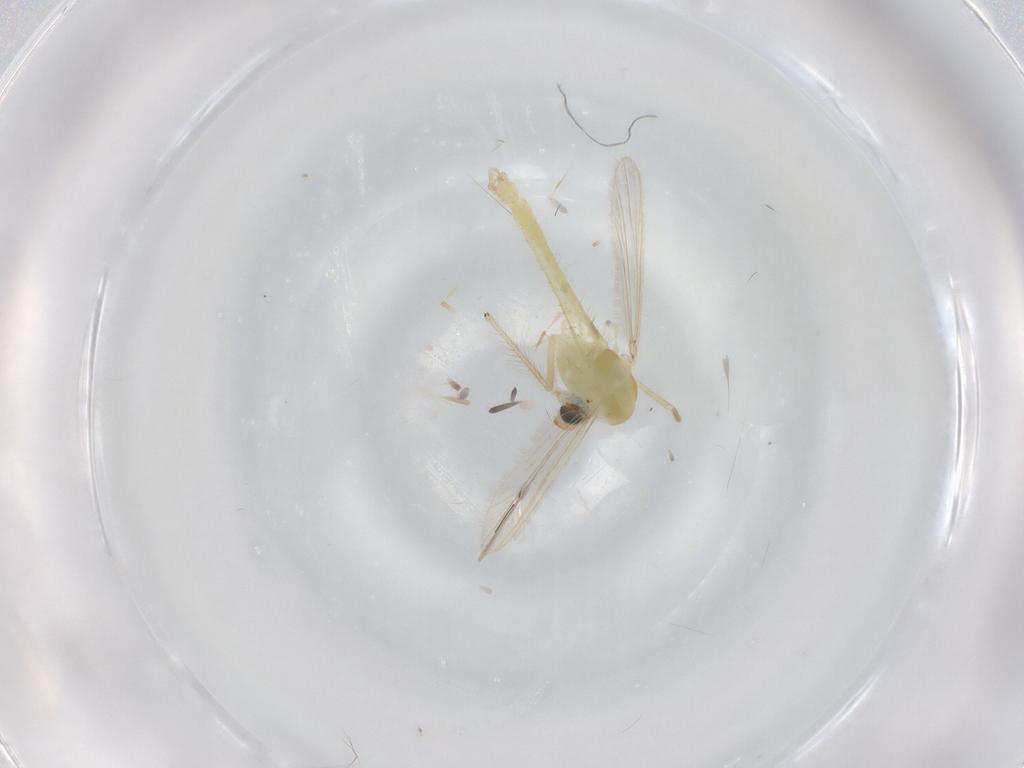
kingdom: Animalia
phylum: Arthropoda
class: Insecta
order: Diptera
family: Chironomidae
